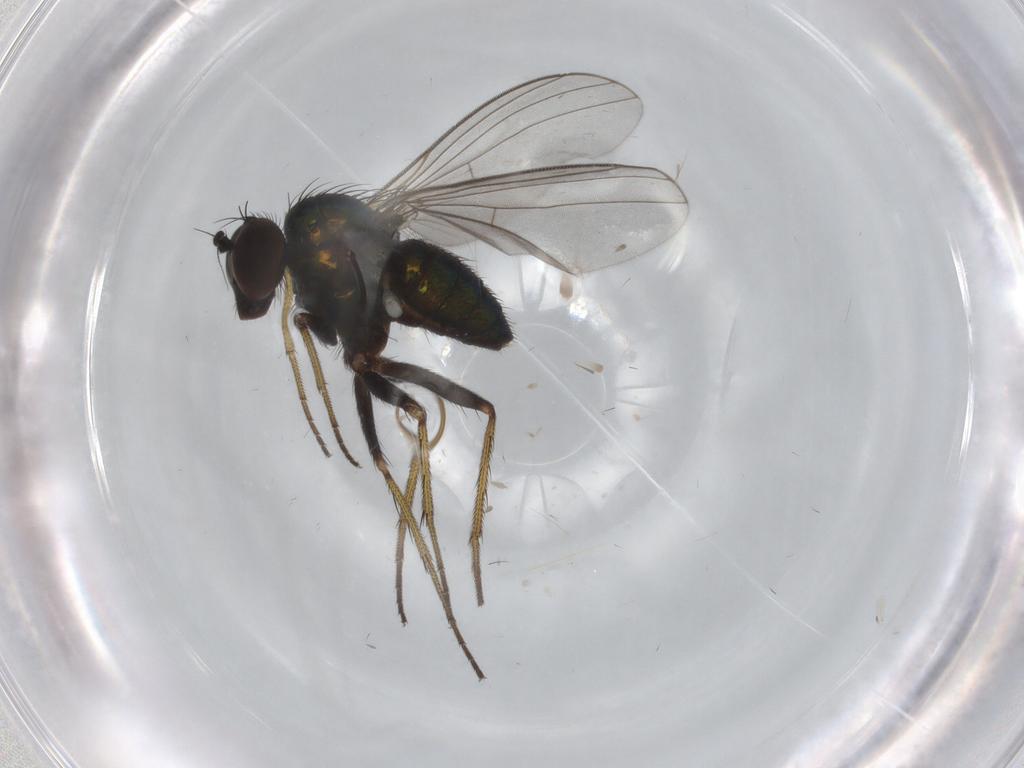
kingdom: Animalia
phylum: Arthropoda
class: Insecta
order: Diptera
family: Dolichopodidae
